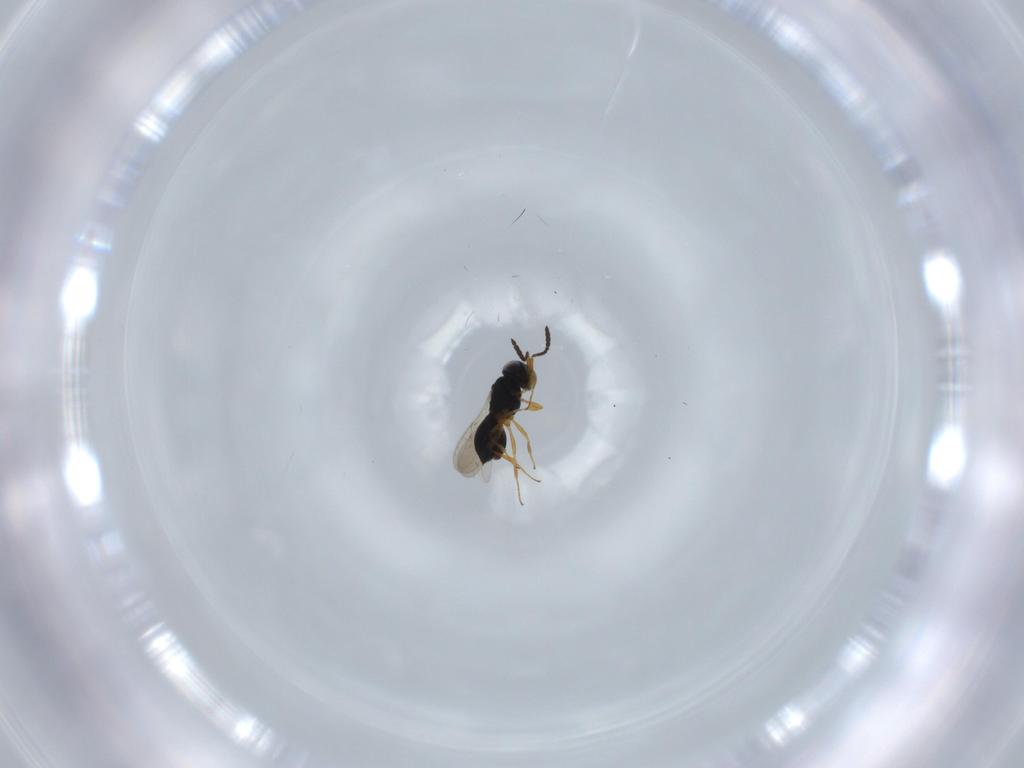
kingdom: Animalia
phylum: Arthropoda
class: Insecta
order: Hymenoptera
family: Scelionidae
